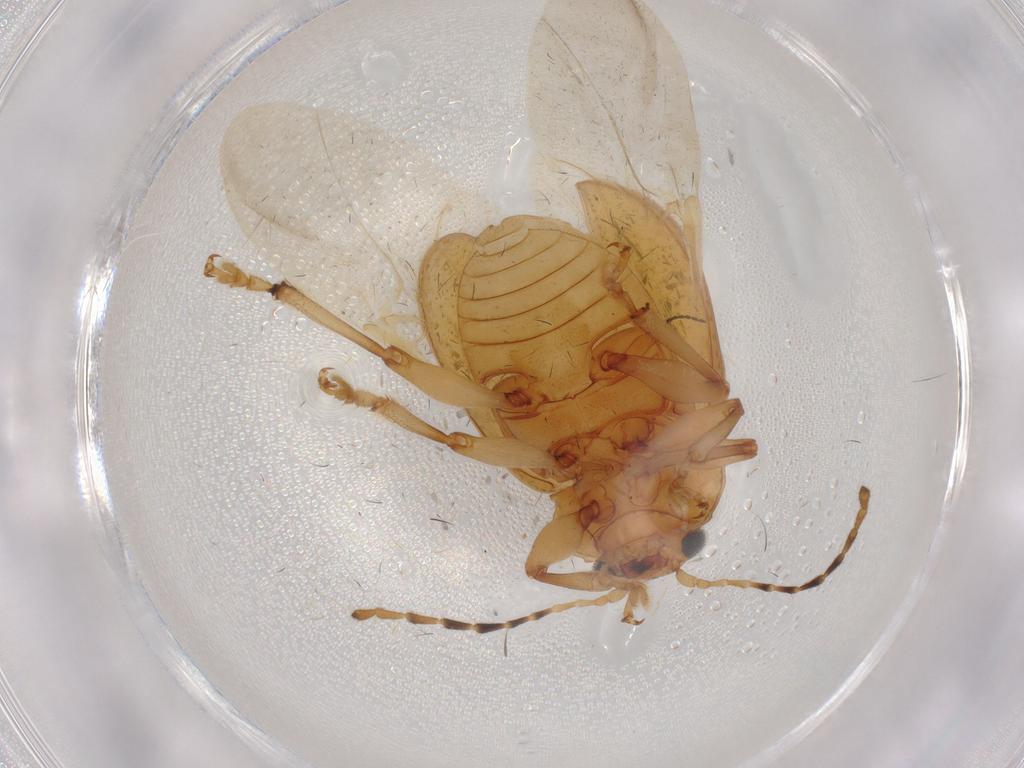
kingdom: Animalia
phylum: Arthropoda
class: Insecta
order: Coleoptera
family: Chrysomelidae
